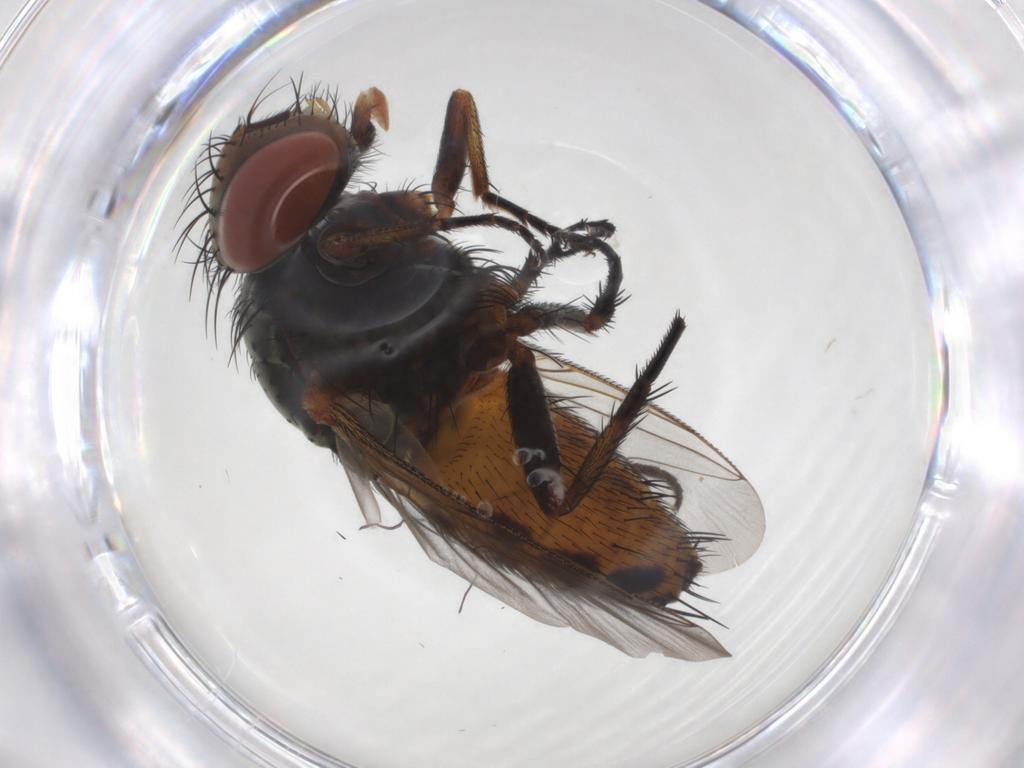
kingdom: Animalia
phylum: Arthropoda
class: Insecta
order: Diptera
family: Sarcophagidae
